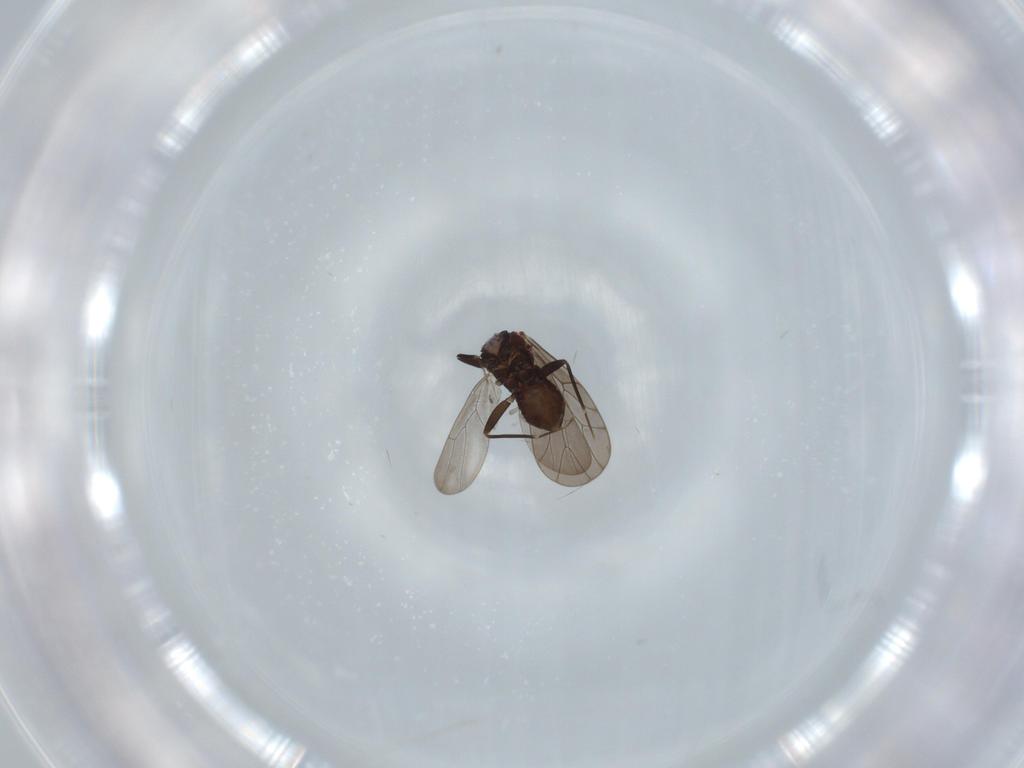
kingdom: Animalia
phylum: Arthropoda
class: Insecta
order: Psocodea
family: Lepidopsocidae
